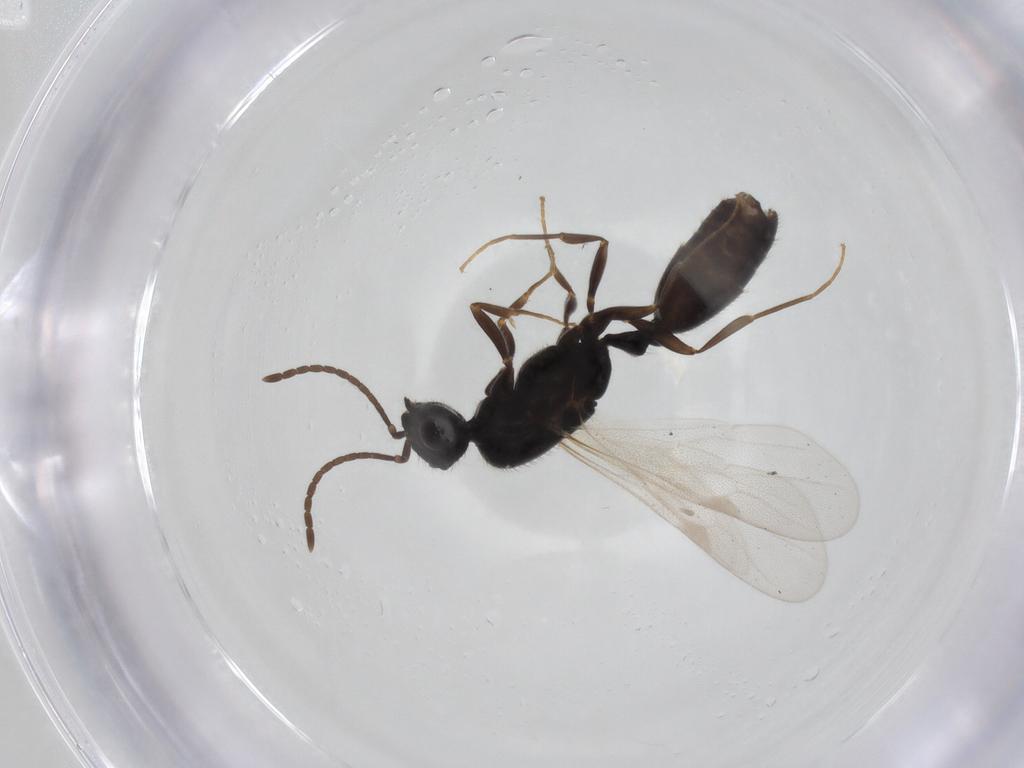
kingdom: Animalia
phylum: Arthropoda
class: Insecta
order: Hymenoptera
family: Formicidae
